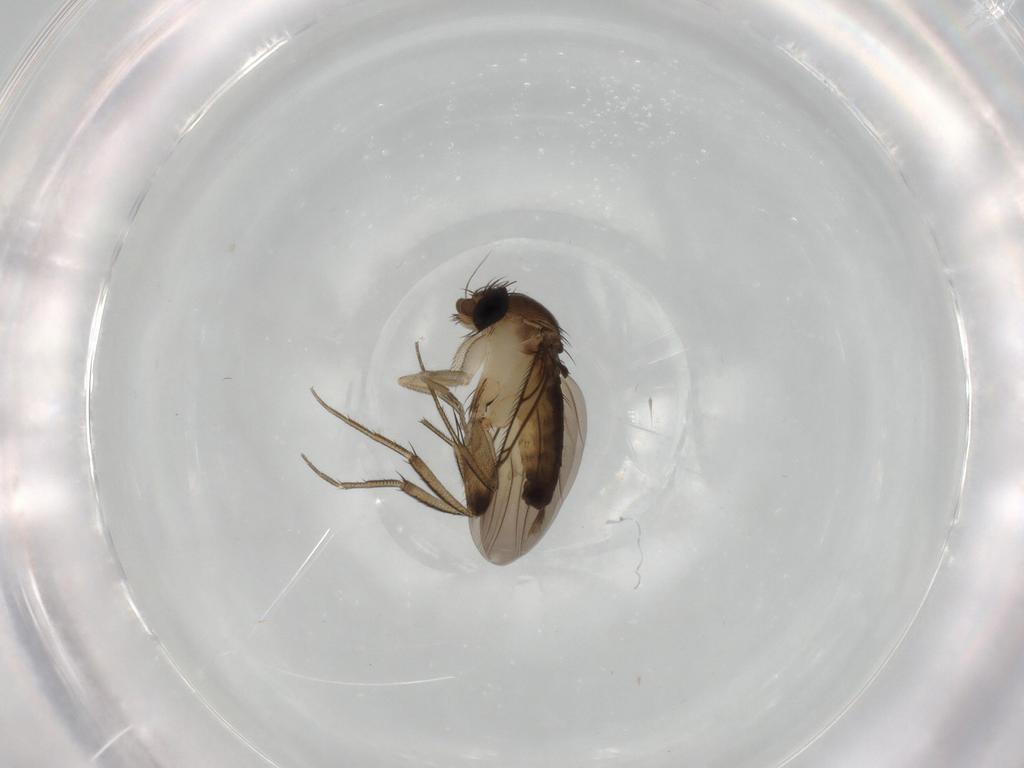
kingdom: Animalia
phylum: Arthropoda
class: Insecta
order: Diptera
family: Phoridae
